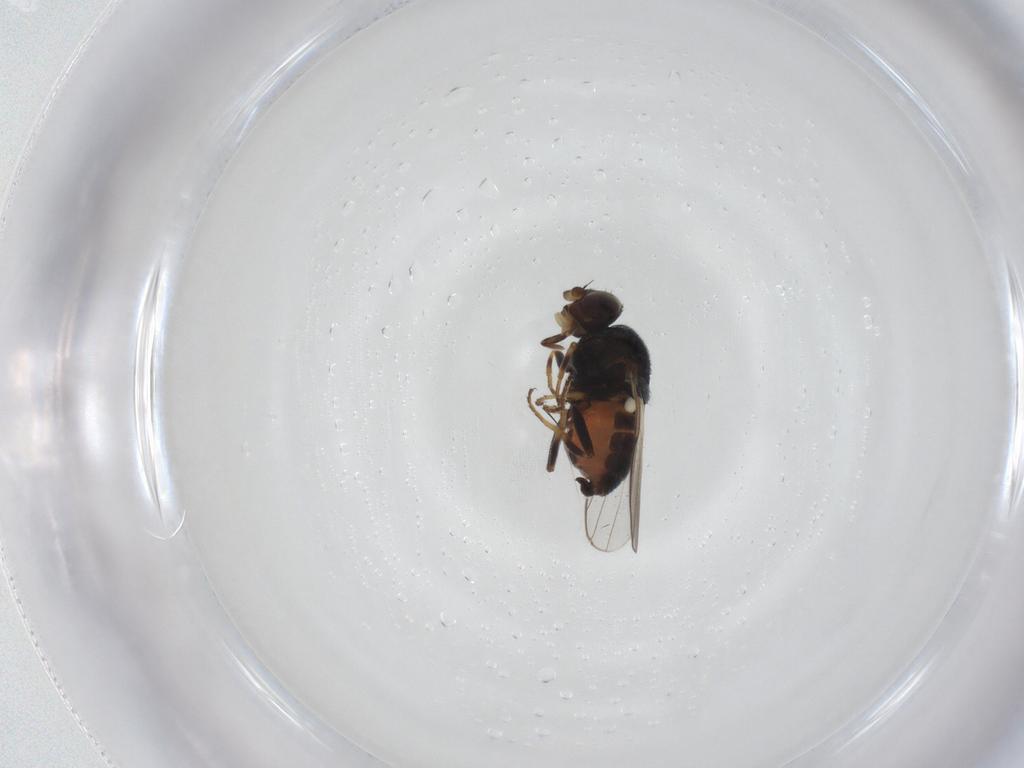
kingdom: Animalia
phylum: Arthropoda
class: Insecta
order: Diptera
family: Chloropidae
